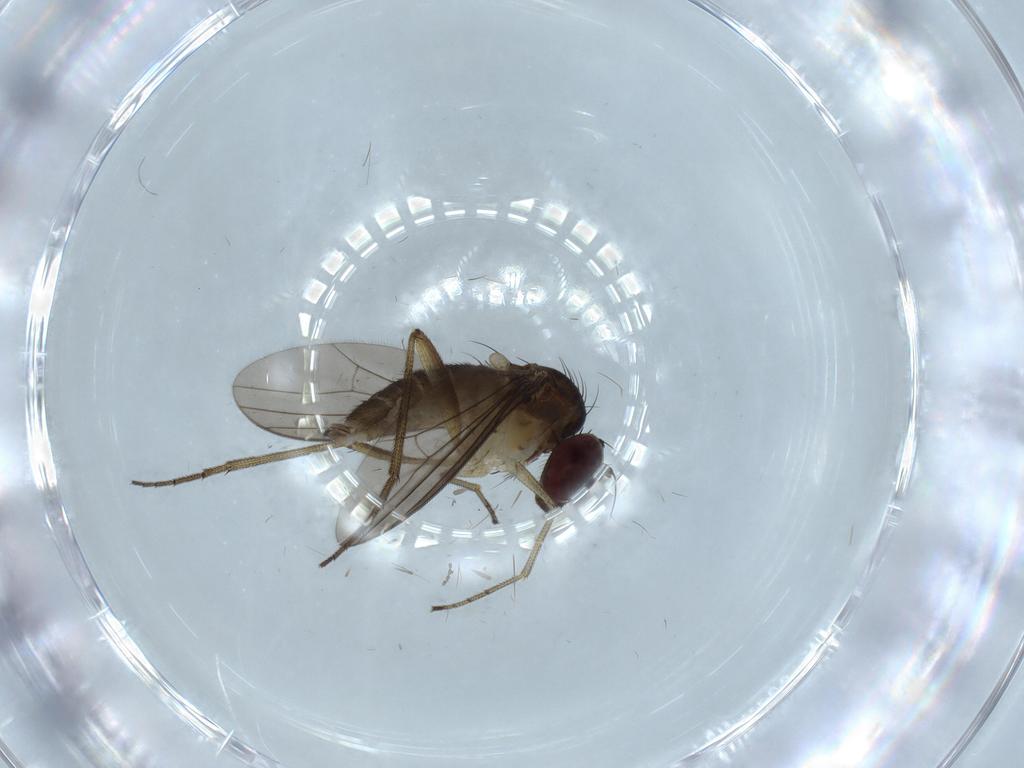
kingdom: Animalia
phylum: Arthropoda
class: Insecta
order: Diptera
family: Dolichopodidae
